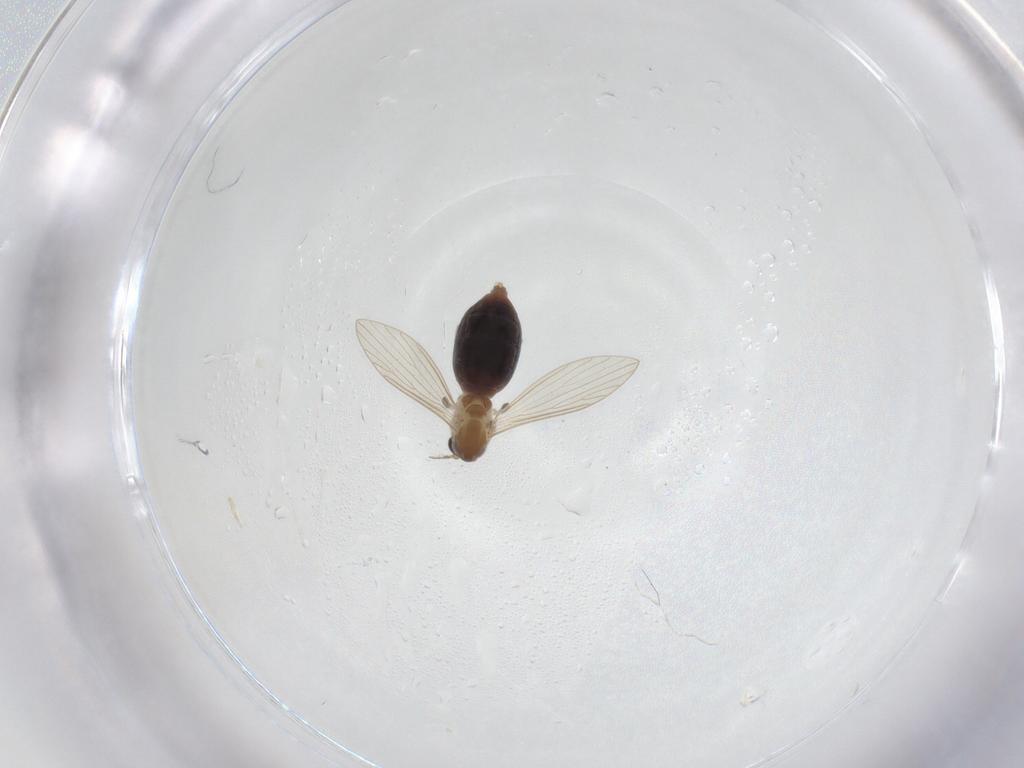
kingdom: Animalia
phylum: Arthropoda
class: Insecta
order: Diptera
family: Psychodidae
